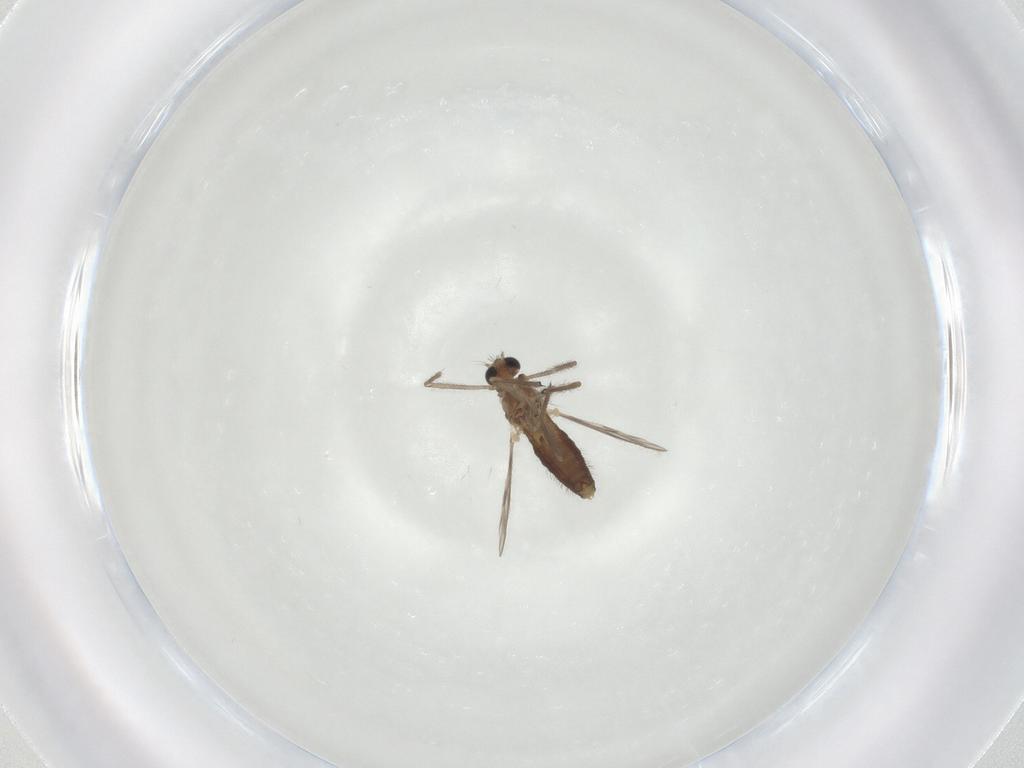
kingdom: Animalia
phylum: Arthropoda
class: Insecta
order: Diptera
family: Chironomidae
